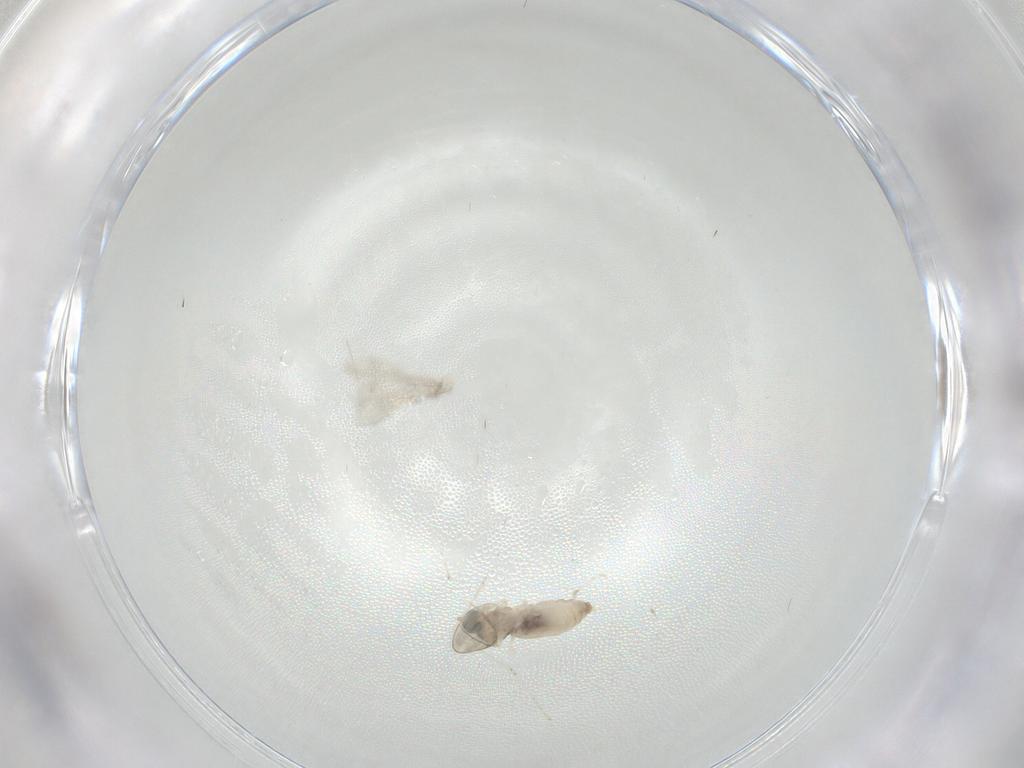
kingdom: Animalia
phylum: Arthropoda
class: Insecta
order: Diptera
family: Cecidomyiidae
